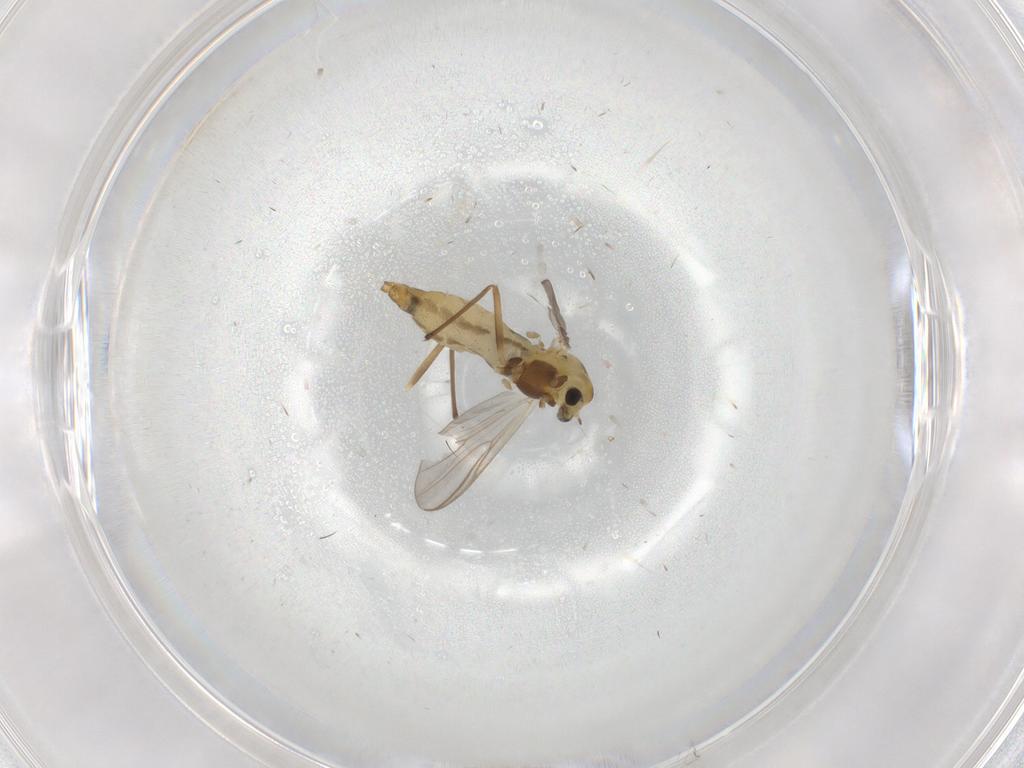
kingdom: Animalia
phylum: Arthropoda
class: Insecta
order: Diptera
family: Chironomidae
